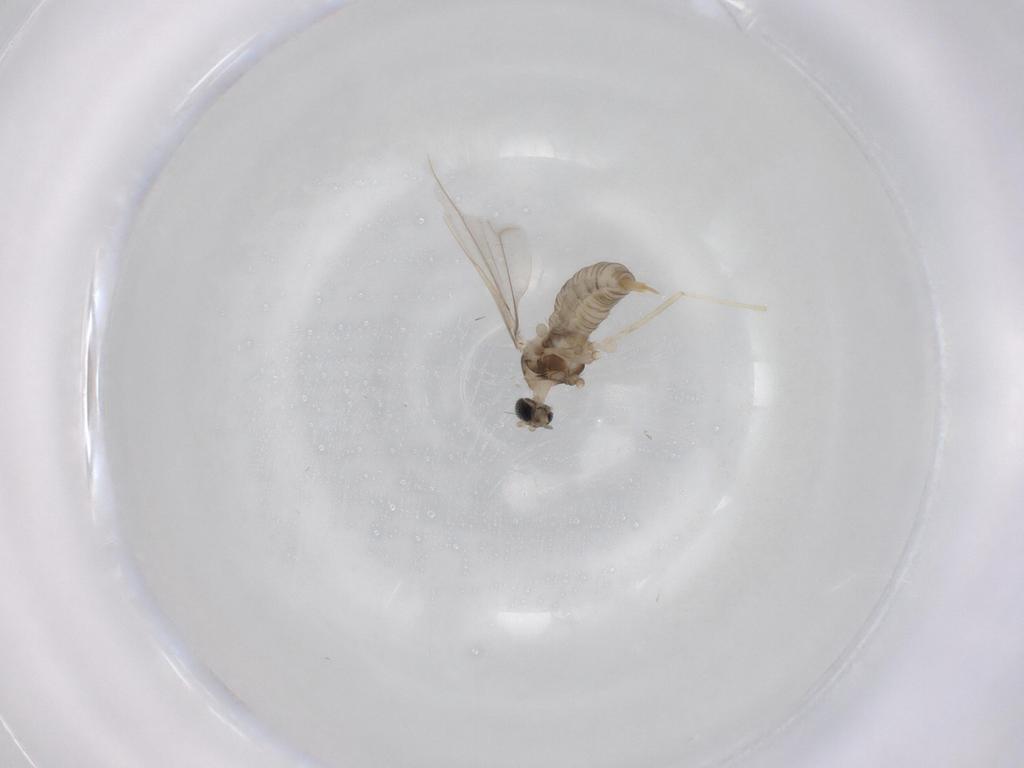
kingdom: Animalia
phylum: Arthropoda
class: Insecta
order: Diptera
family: Cecidomyiidae
